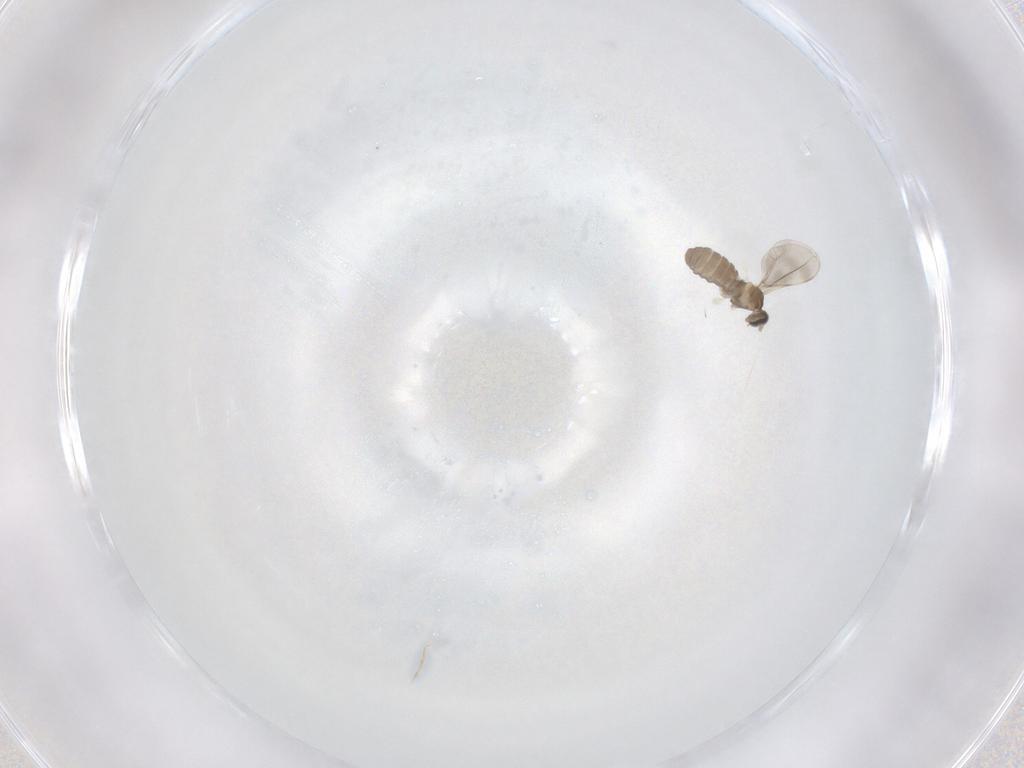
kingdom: Animalia
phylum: Arthropoda
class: Insecta
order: Diptera
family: Cecidomyiidae
